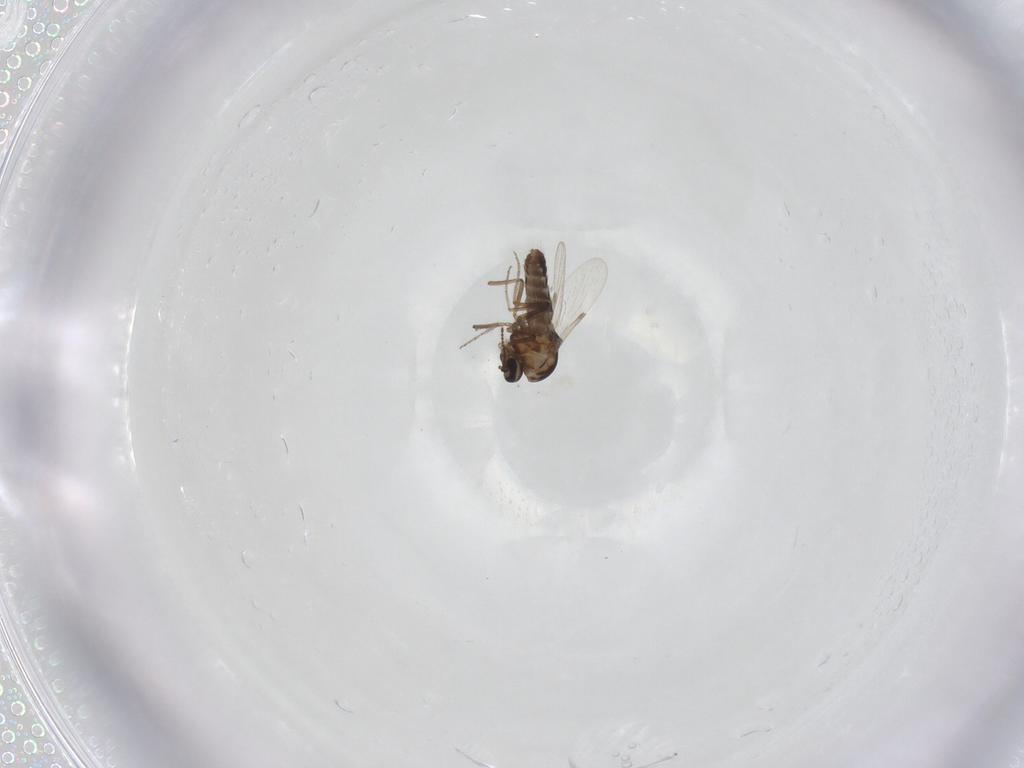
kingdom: Animalia
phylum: Arthropoda
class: Insecta
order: Diptera
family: Ceratopogonidae
